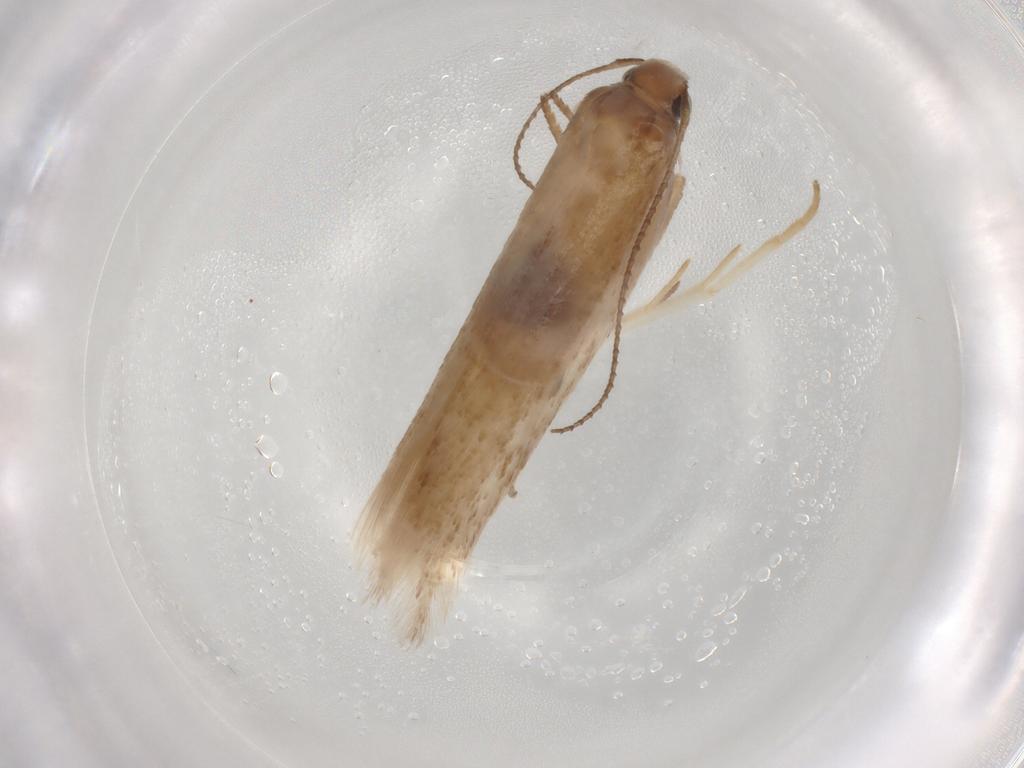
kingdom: Animalia
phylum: Arthropoda
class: Insecta
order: Lepidoptera
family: Gelechiidae
